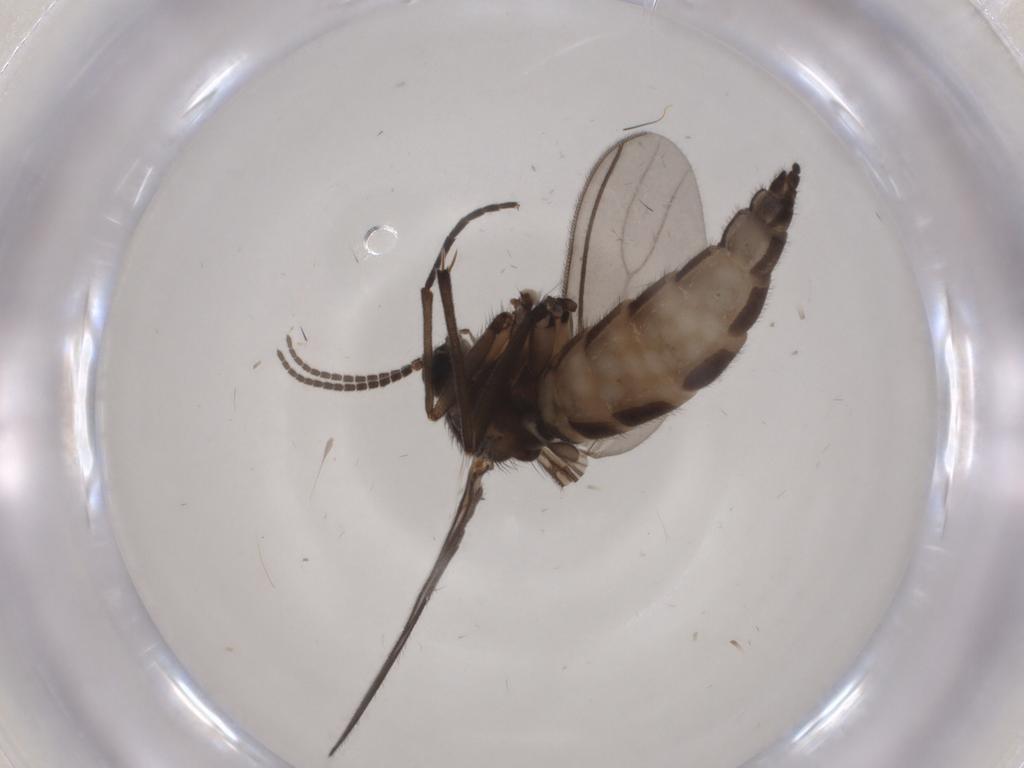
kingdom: Animalia
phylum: Arthropoda
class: Insecta
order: Diptera
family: Sciaridae
